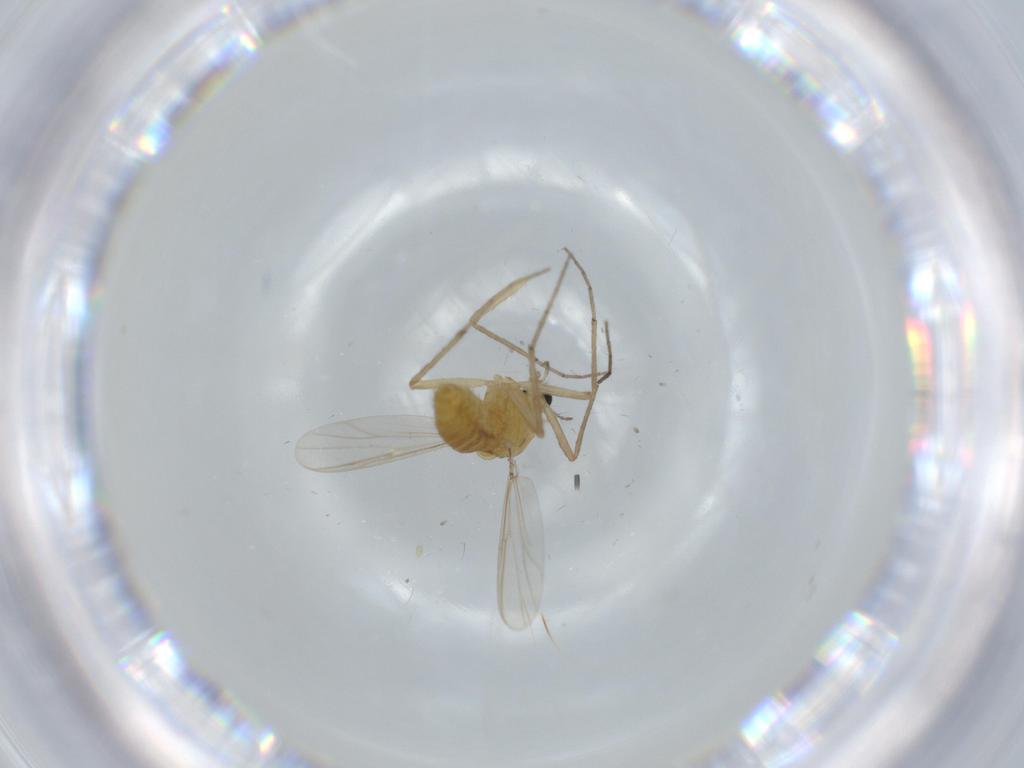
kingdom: Animalia
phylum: Arthropoda
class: Insecta
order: Diptera
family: Chironomidae
